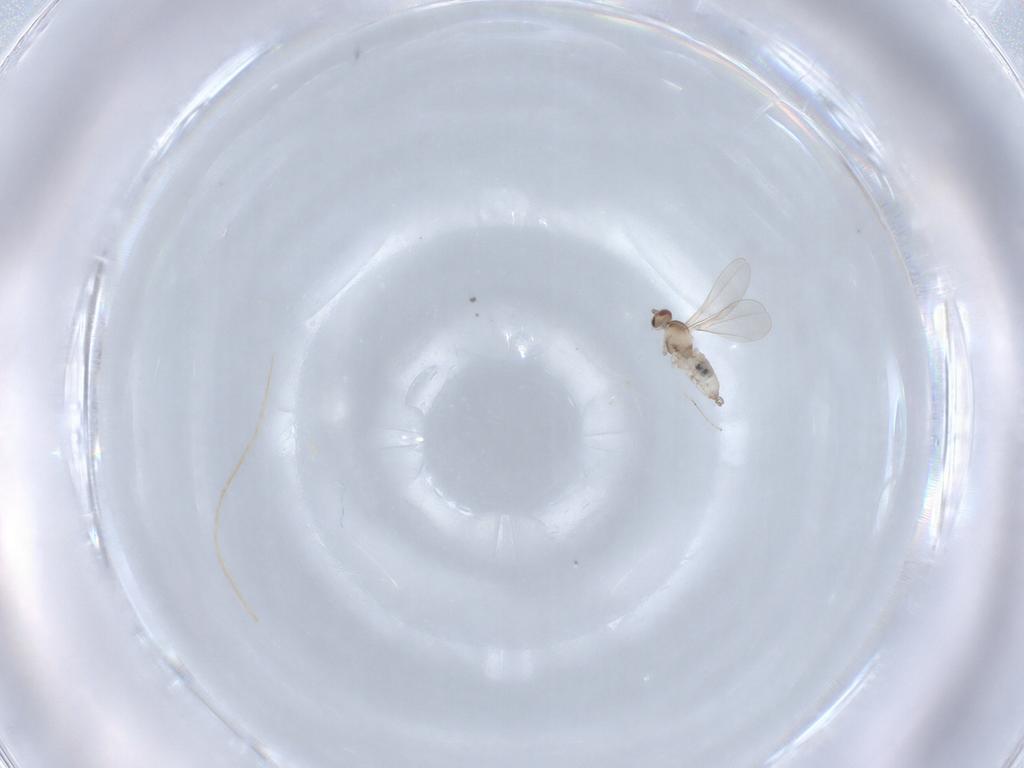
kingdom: Animalia
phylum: Arthropoda
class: Insecta
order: Diptera
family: Cecidomyiidae
